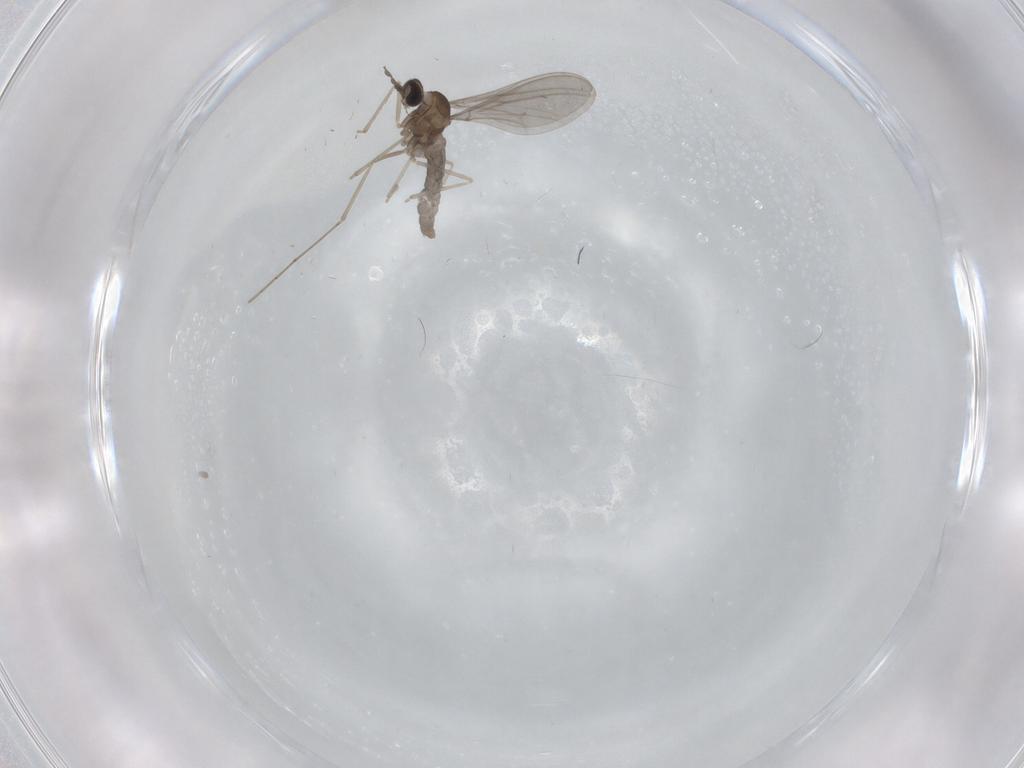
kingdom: Animalia
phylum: Arthropoda
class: Insecta
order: Diptera
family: Cecidomyiidae
